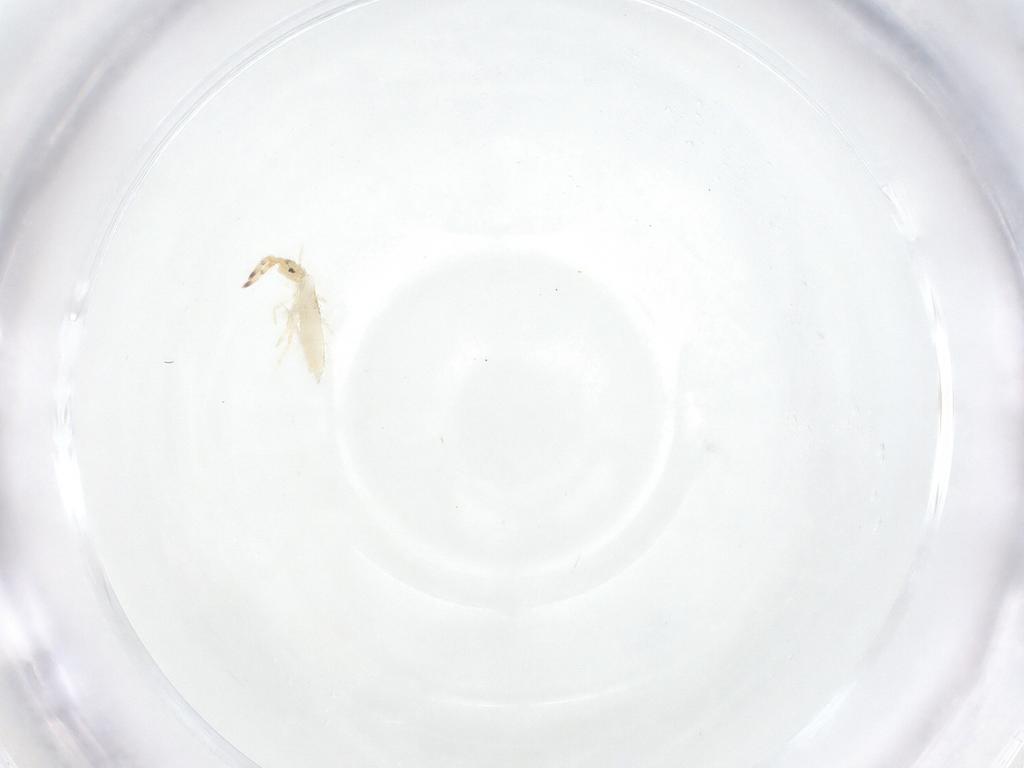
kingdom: Animalia
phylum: Arthropoda
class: Collembola
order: Entomobryomorpha
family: Entomobryidae
